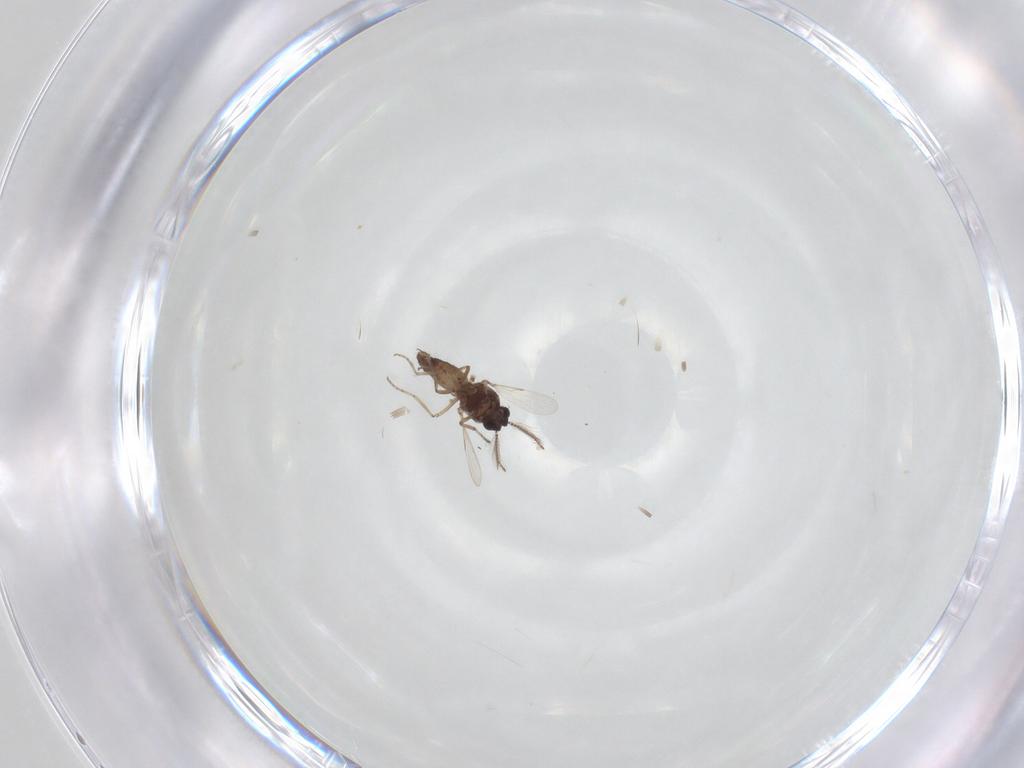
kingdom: Animalia
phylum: Arthropoda
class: Insecta
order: Diptera
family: Ceratopogonidae
